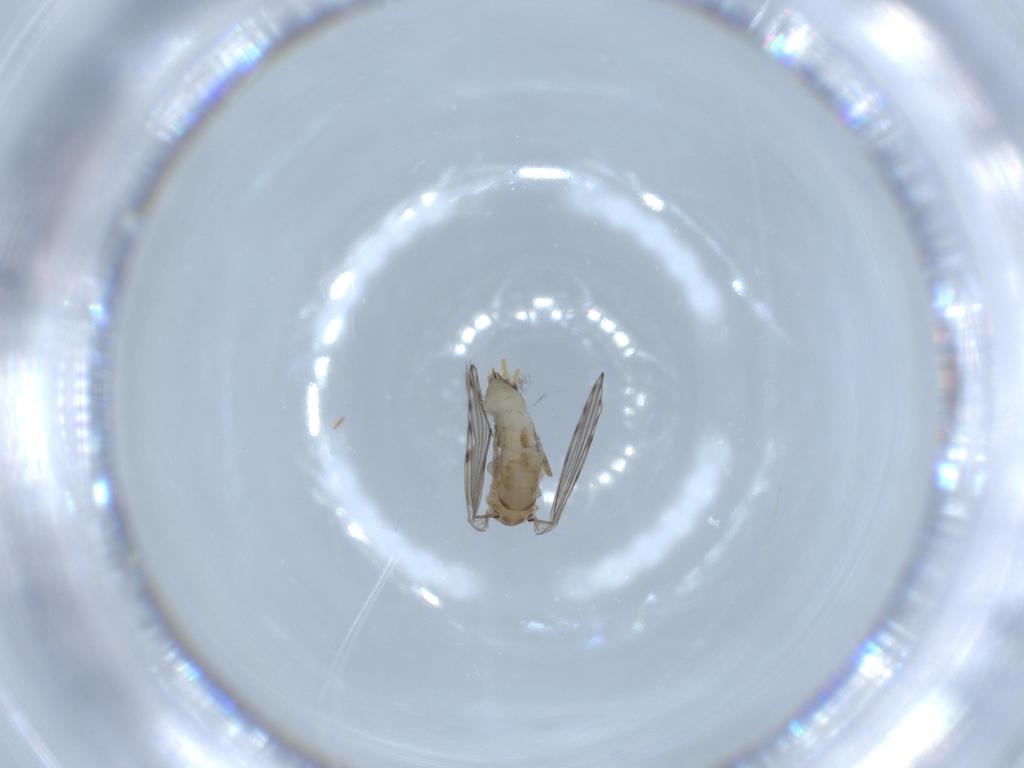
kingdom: Animalia
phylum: Arthropoda
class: Insecta
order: Diptera
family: Psychodidae
